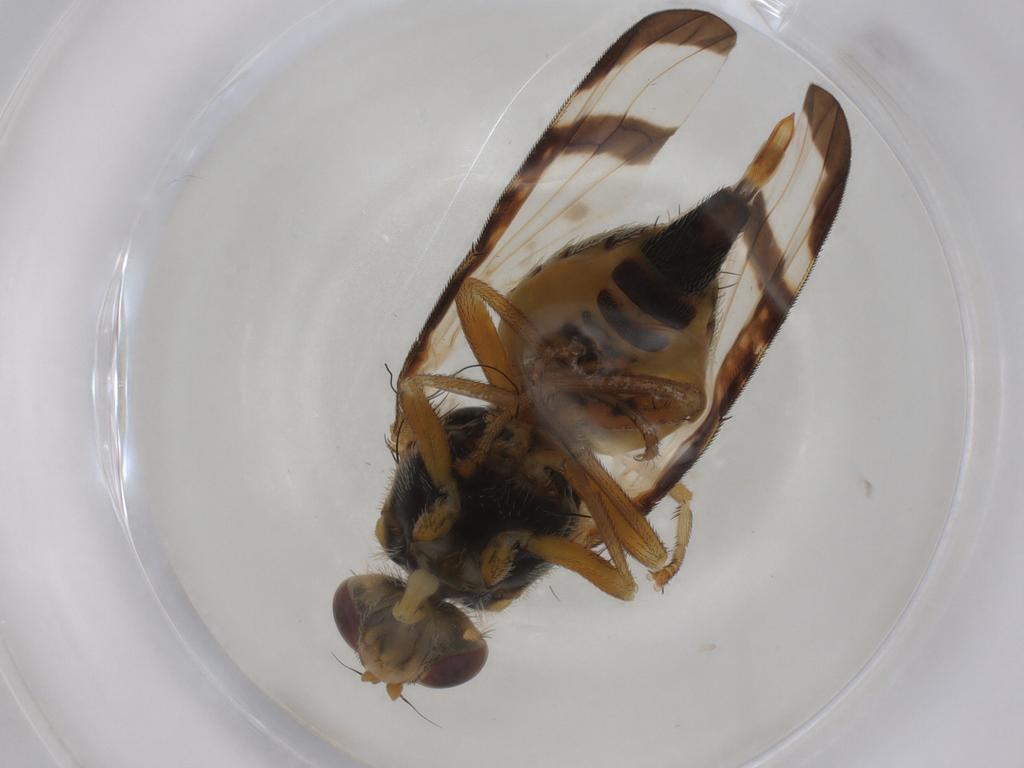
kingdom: Animalia
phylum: Arthropoda
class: Insecta
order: Diptera
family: Tephritidae
